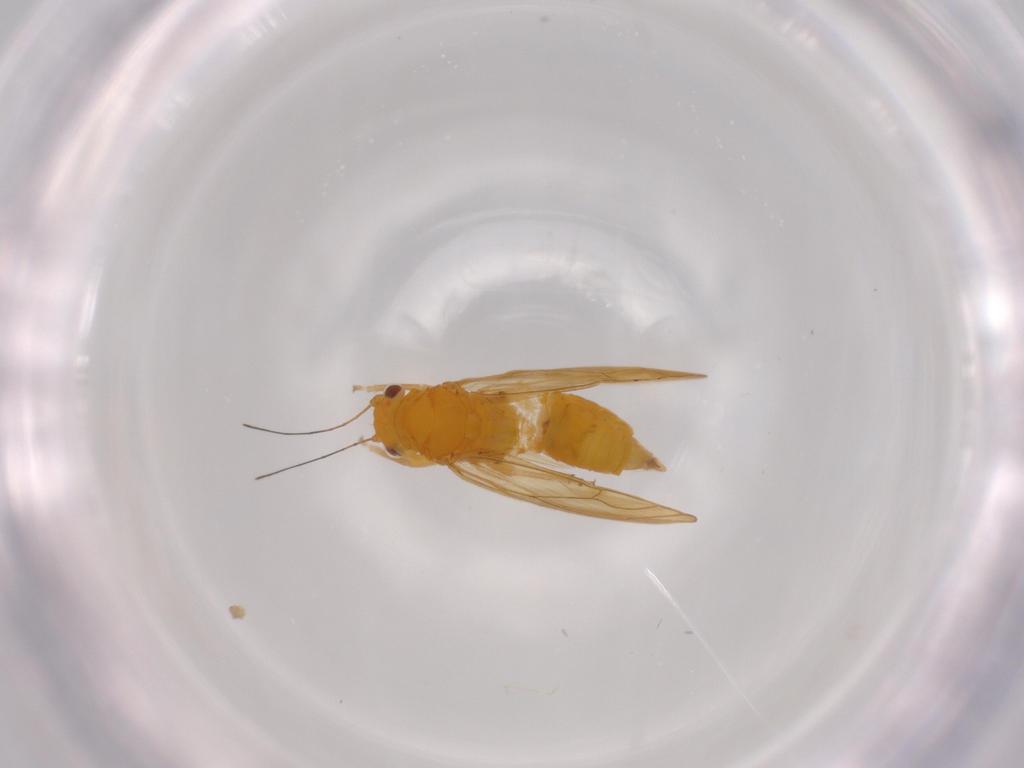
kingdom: Animalia
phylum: Arthropoda
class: Insecta
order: Hemiptera
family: Psyllidae
